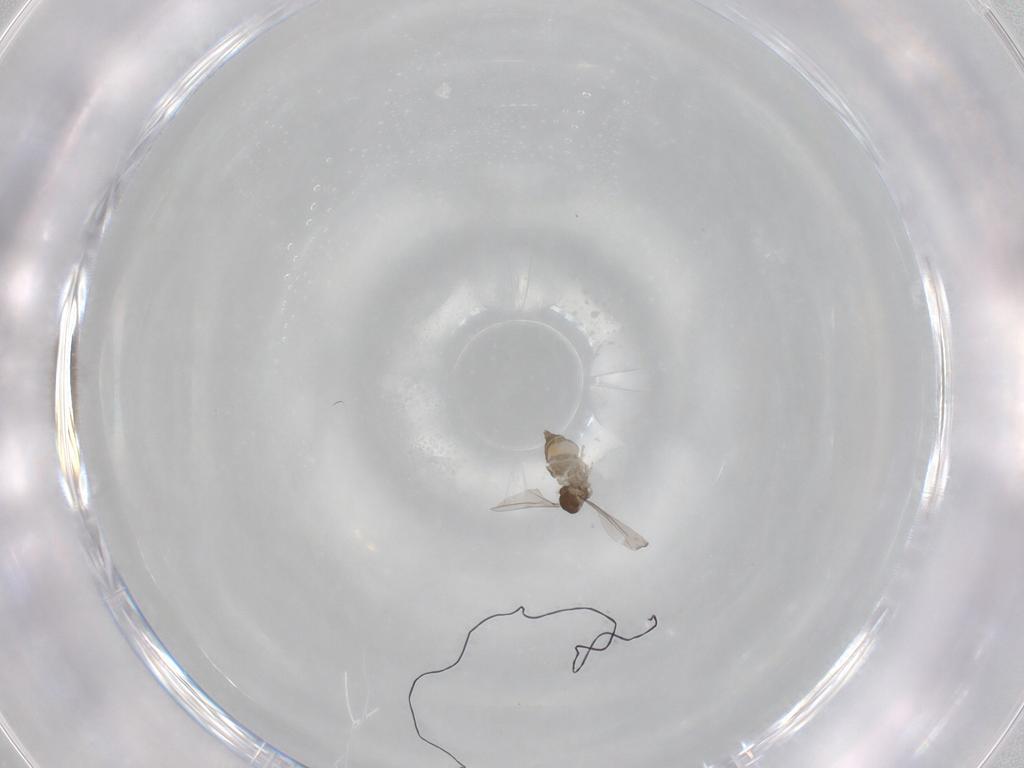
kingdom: Animalia
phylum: Arthropoda
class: Insecta
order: Diptera
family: Cecidomyiidae
